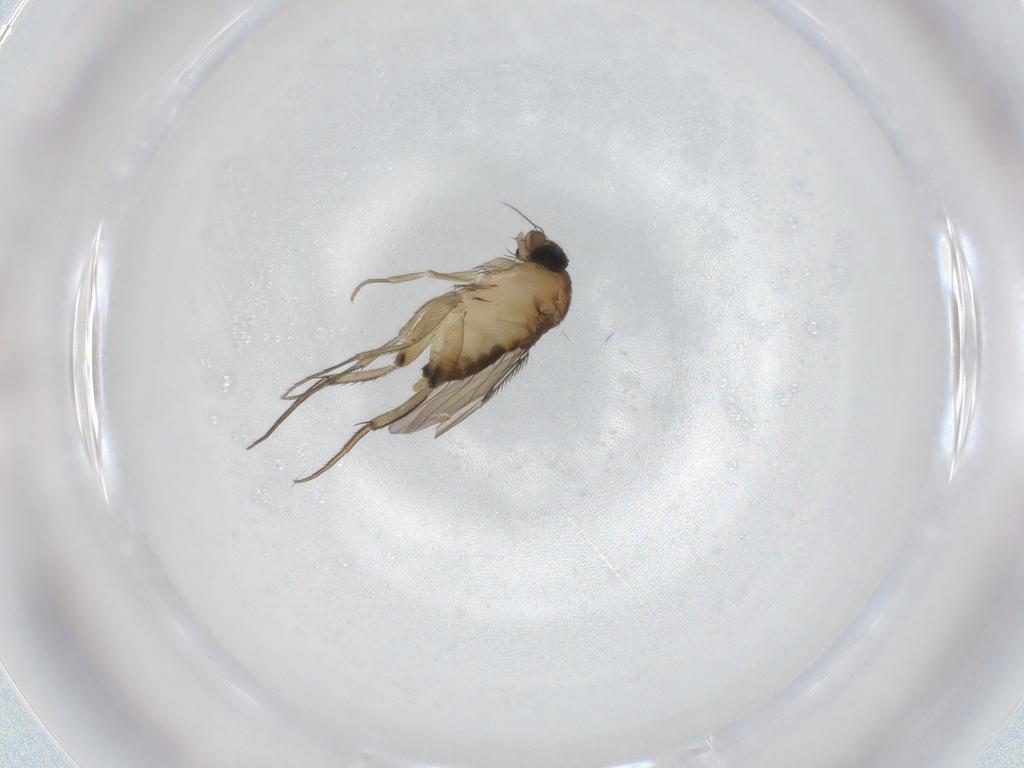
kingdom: Animalia
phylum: Arthropoda
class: Insecta
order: Diptera
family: Phoridae
